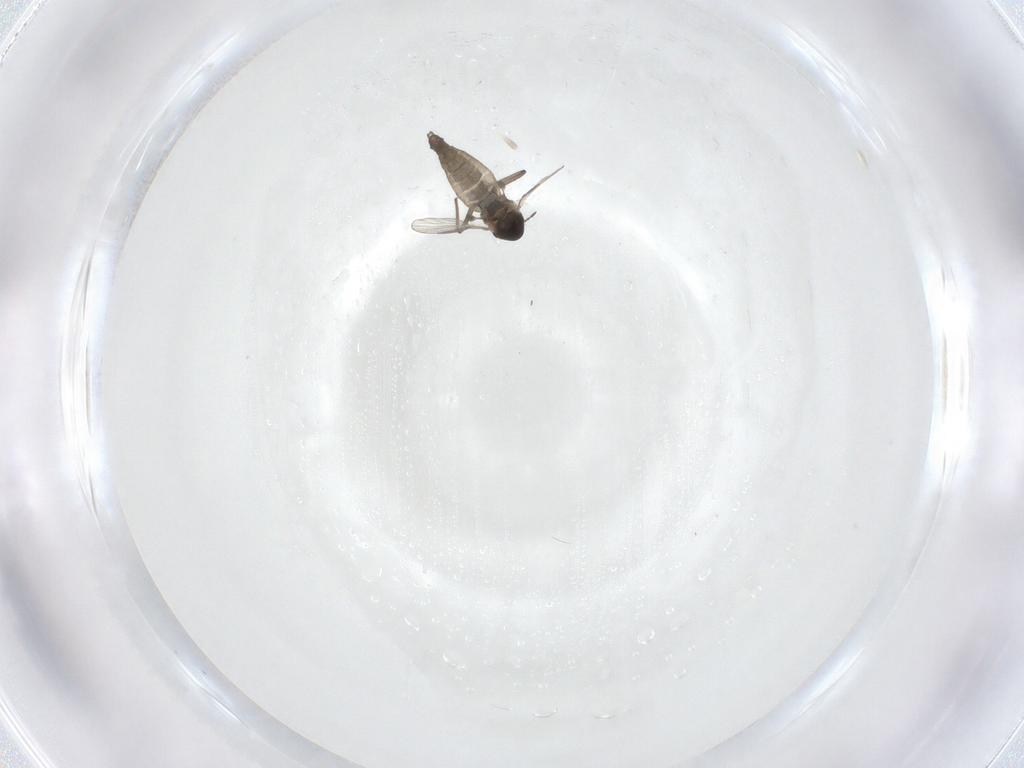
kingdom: Animalia
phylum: Arthropoda
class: Insecta
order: Diptera
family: Chironomidae
